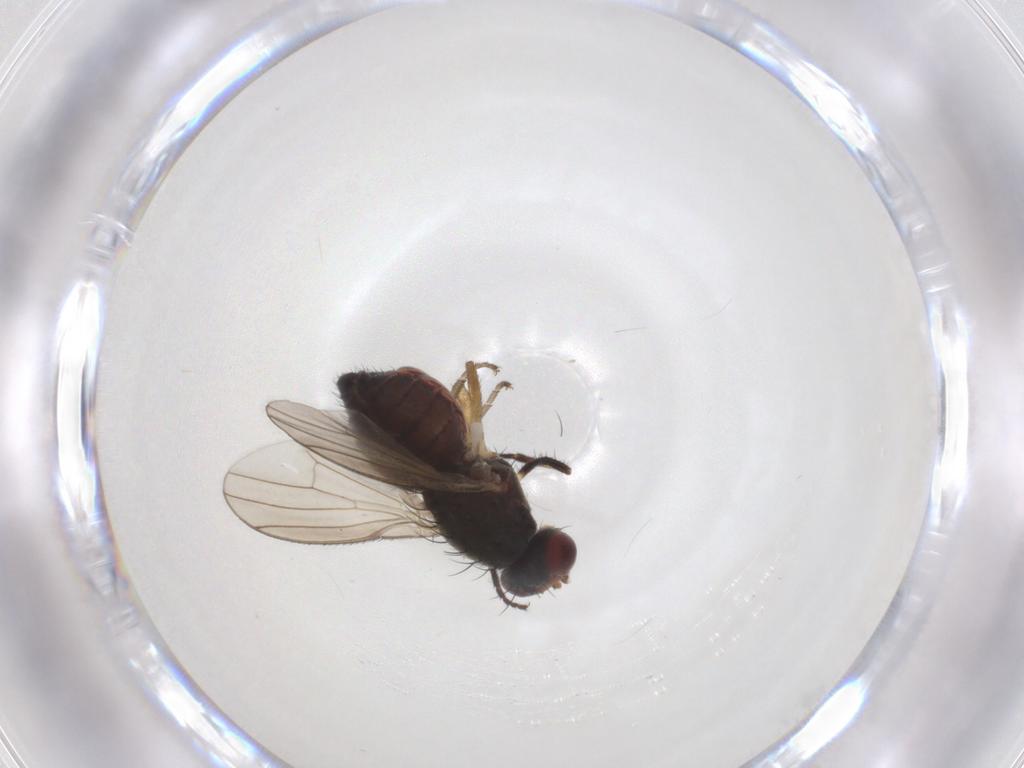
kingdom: Animalia
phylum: Arthropoda
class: Insecta
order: Diptera
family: Heleomyzidae
